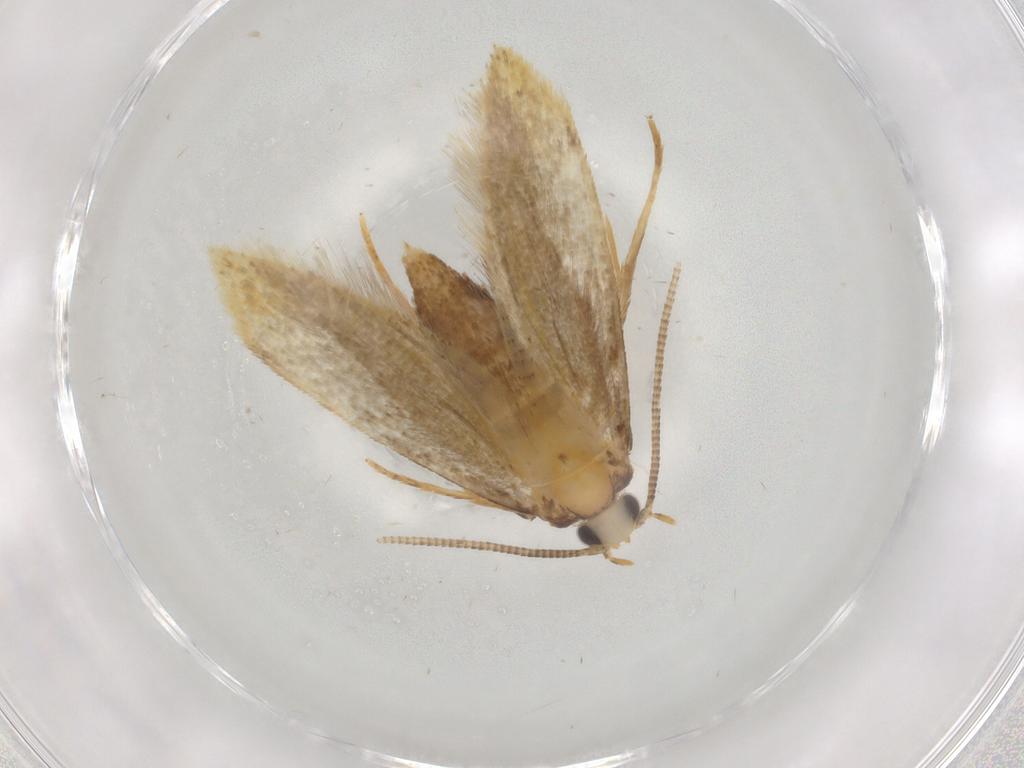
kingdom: Animalia
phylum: Arthropoda
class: Insecta
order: Lepidoptera
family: Tineidae
